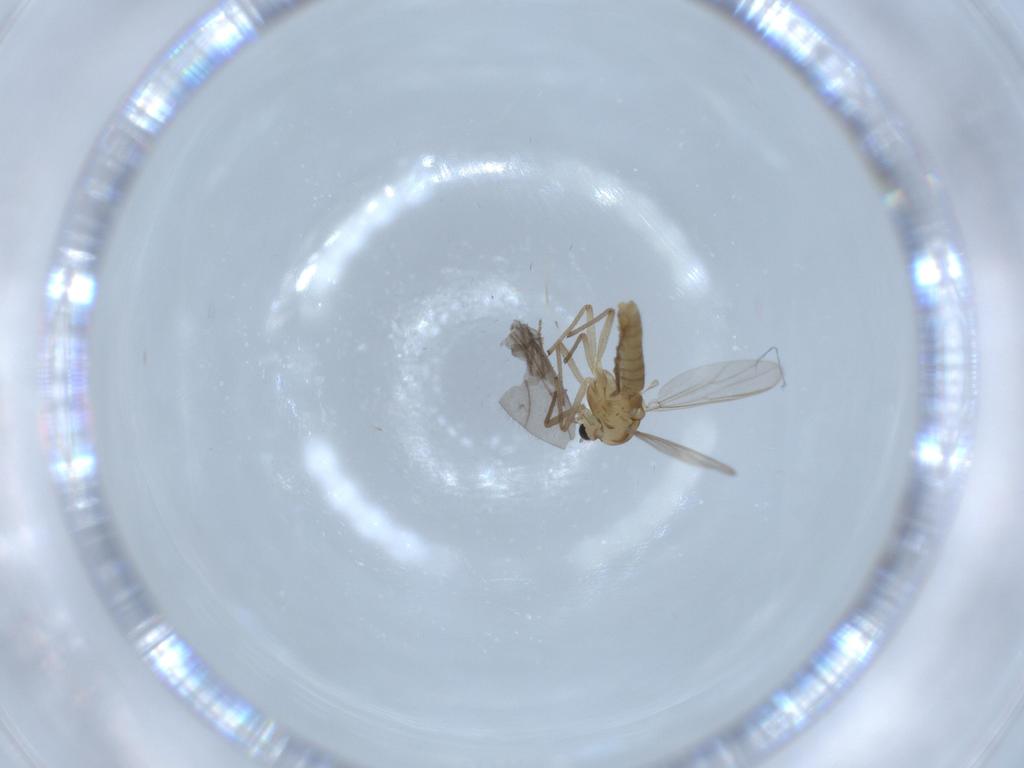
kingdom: Animalia
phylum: Arthropoda
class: Insecta
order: Diptera
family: Chironomidae
